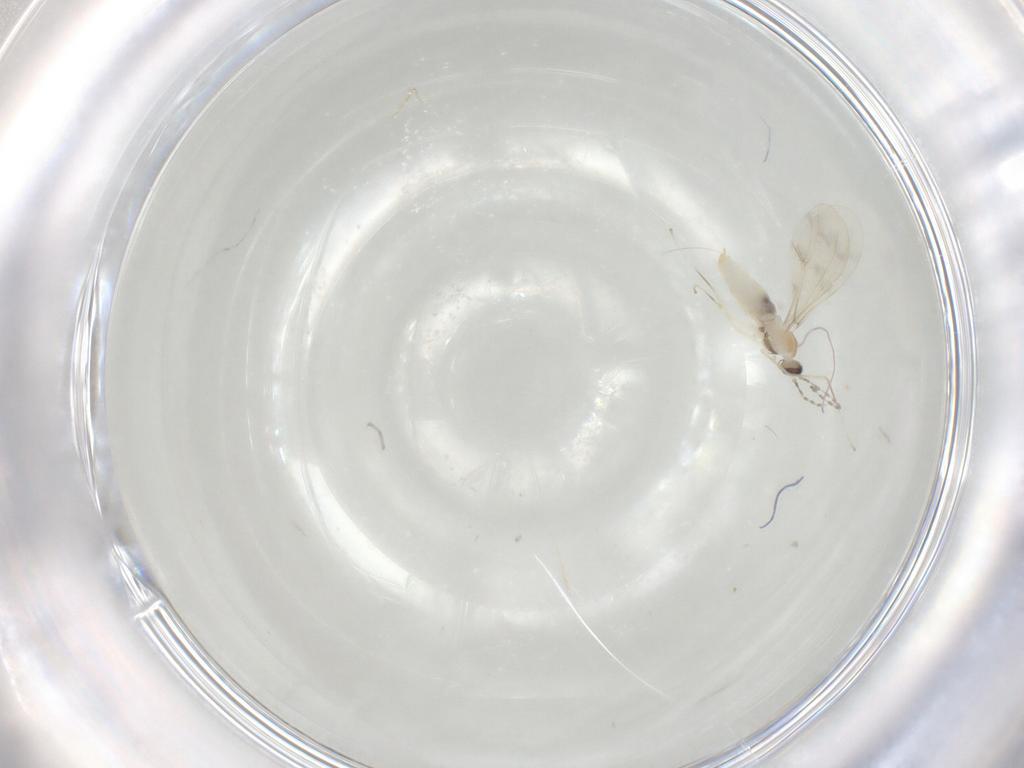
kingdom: Animalia
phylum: Arthropoda
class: Insecta
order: Diptera
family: Cecidomyiidae
